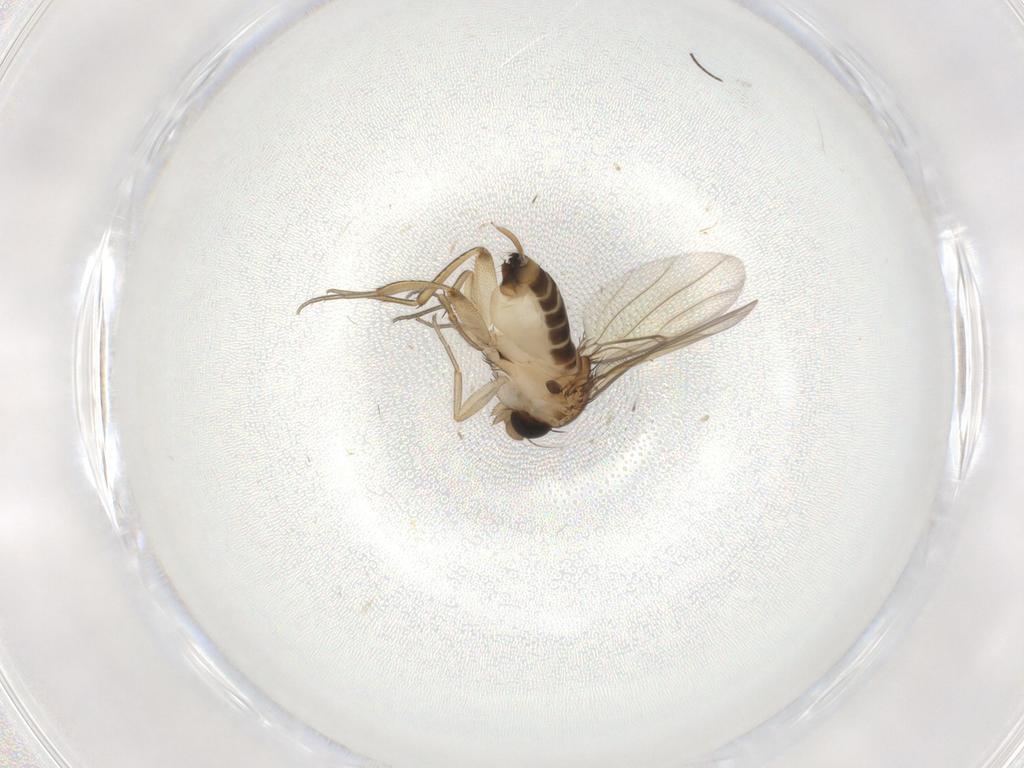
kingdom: Animalia
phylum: Arthropoda
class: Insecta
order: Diptera
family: Phoridae
